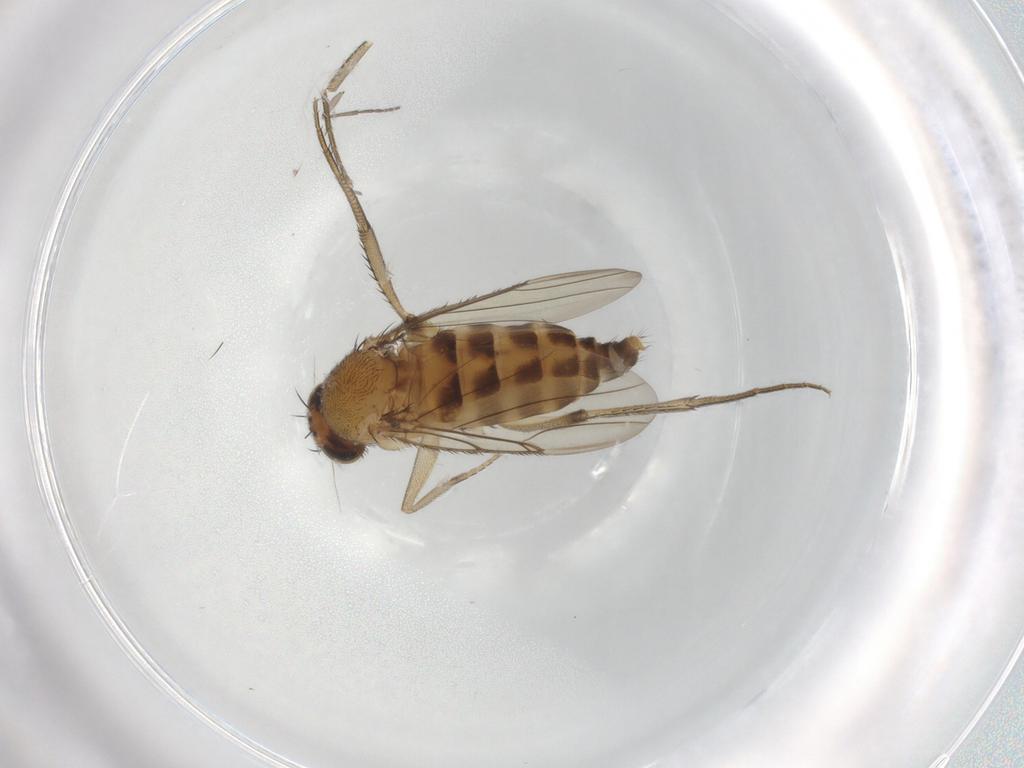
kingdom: Animalia
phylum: Arthropoda
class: Insecta
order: Diptera
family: Phoridae
